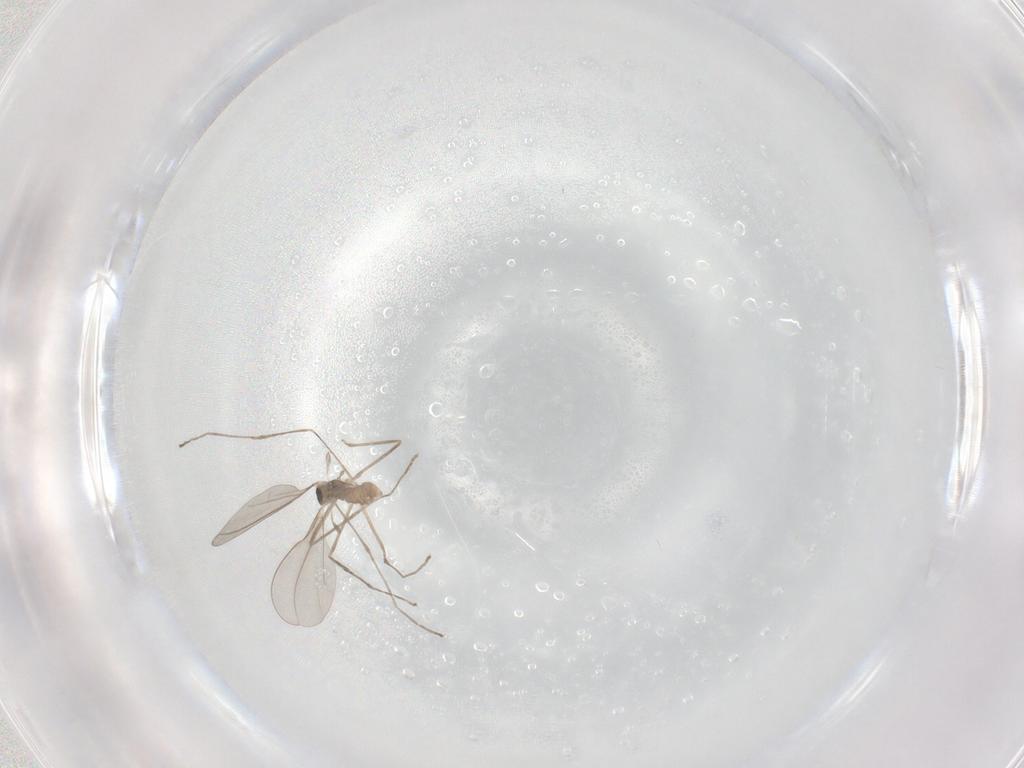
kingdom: Animalia
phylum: Arthropoda
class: Insecta
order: Diptera
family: Cecidomyiidae
